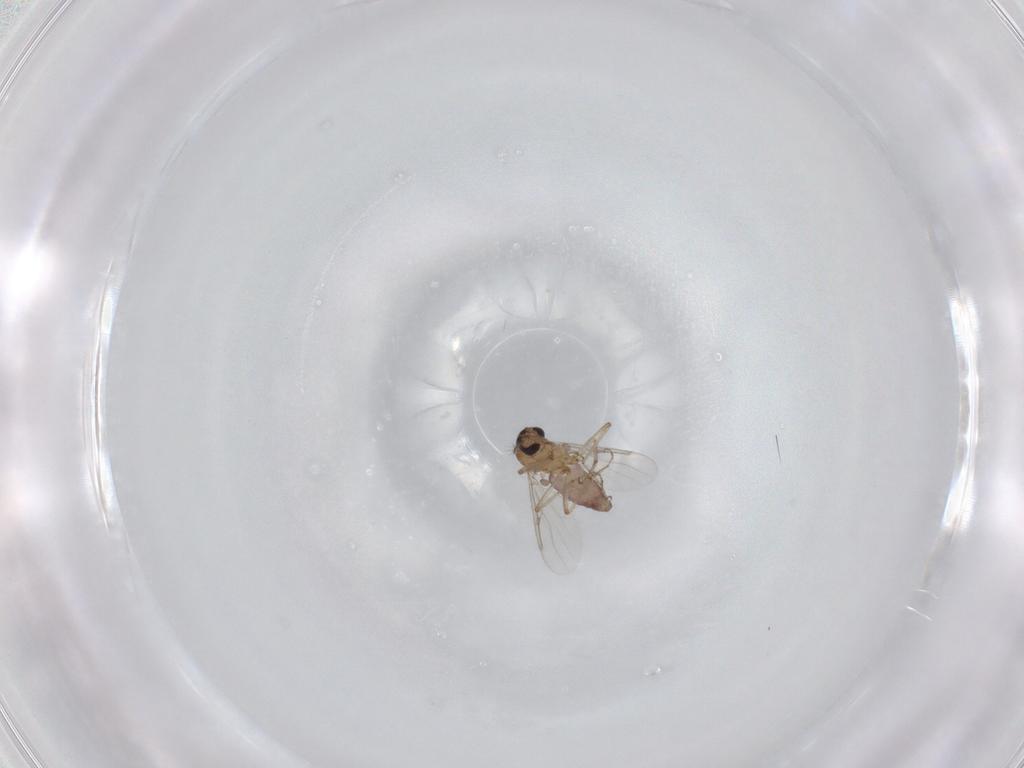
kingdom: Animalia
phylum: Arthropoda
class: Insecta
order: Diptera
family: Ceratopogonidae
